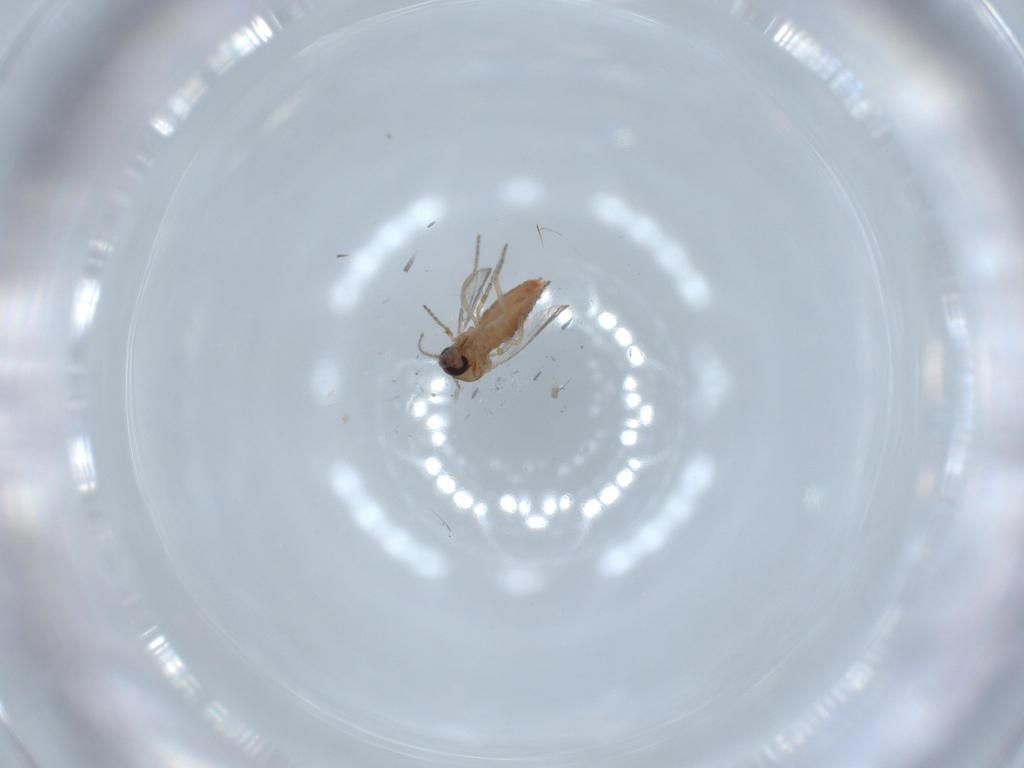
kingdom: Animalia
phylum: Arthropoda
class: Insecta
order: Diptera
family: Ceratopogonidae
